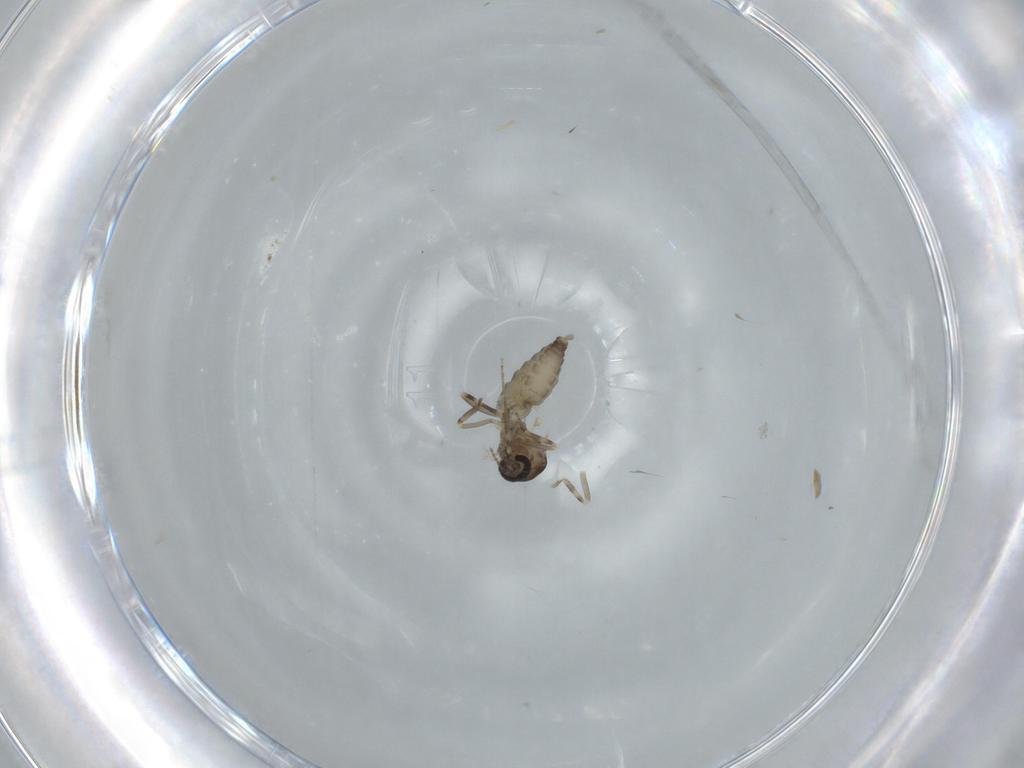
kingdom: Animalia
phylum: Arthropoda
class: Insecta
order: Diptera
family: Ceratopogonidae
